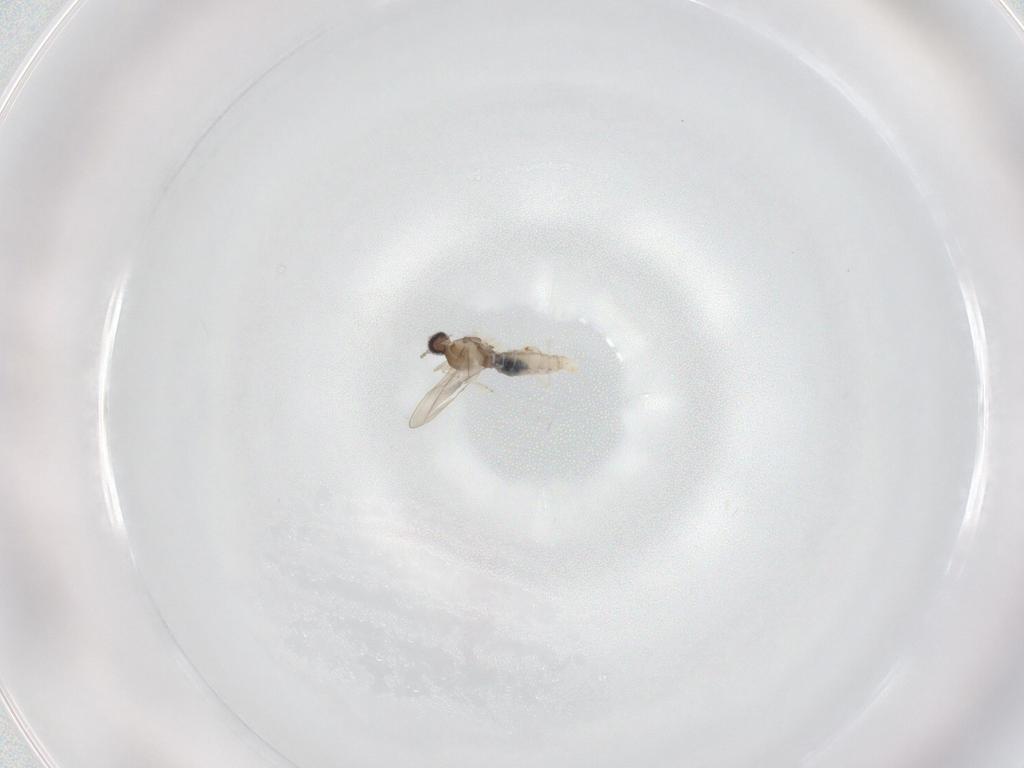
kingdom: Animalia
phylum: Arthropoda
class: Insecta
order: Diptera
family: Cecidomyiidae
